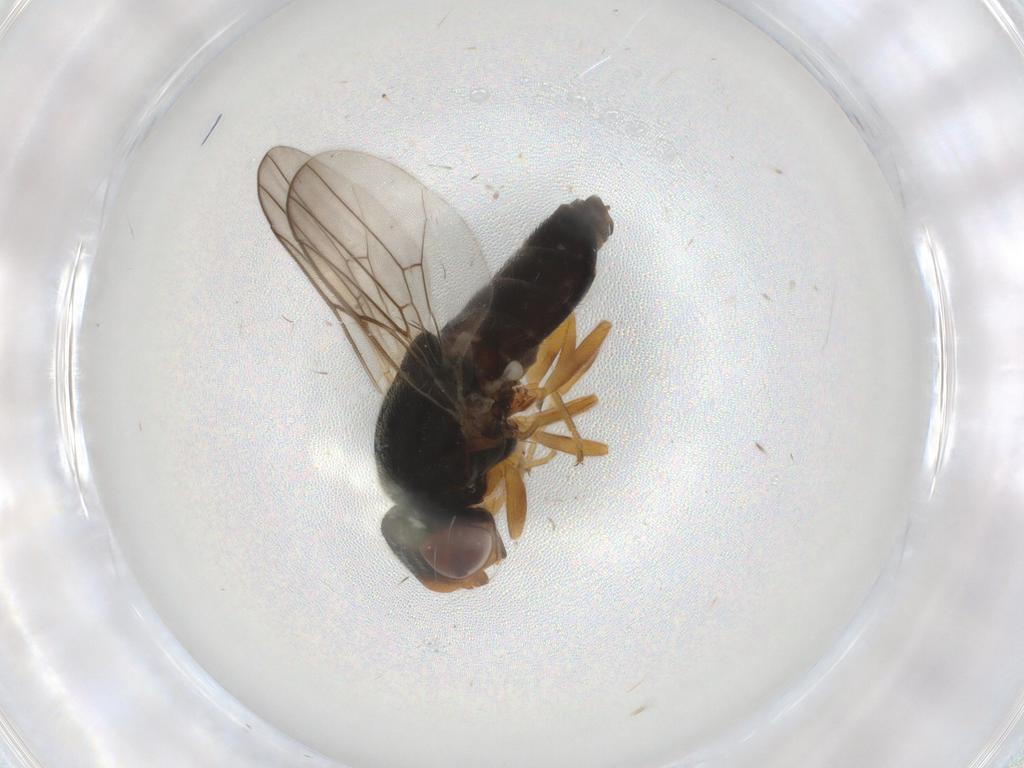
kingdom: Animalia
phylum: Arthropoda
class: Insecta
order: Diptera
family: Chloropidae
